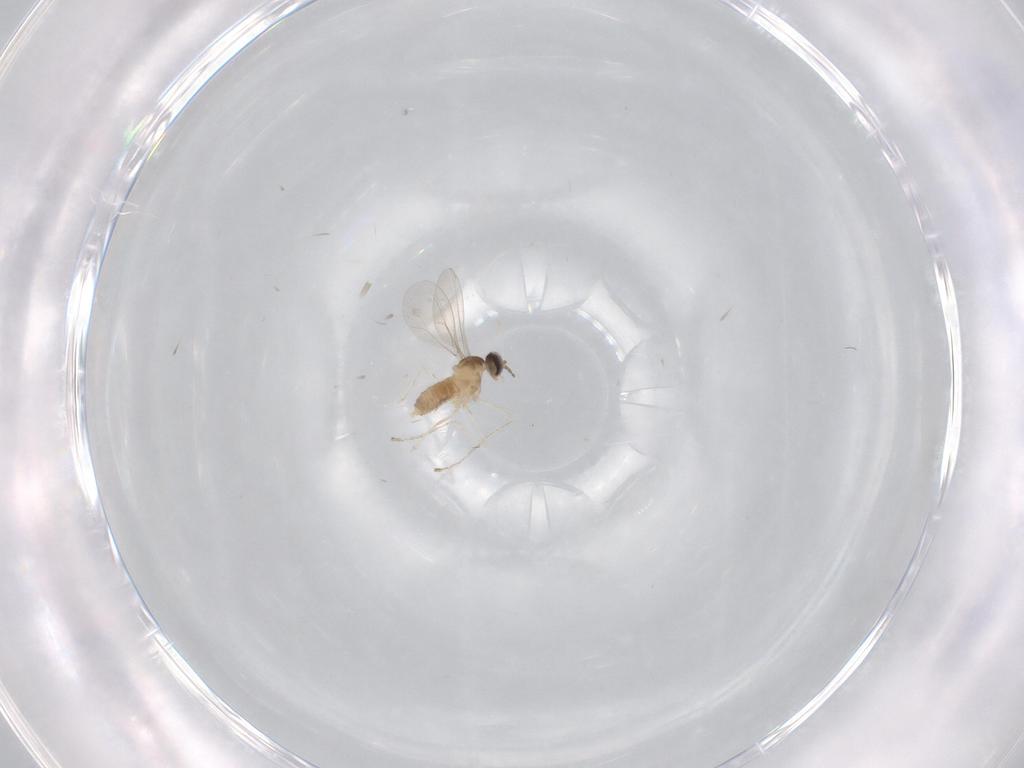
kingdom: Animalia
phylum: Arthropoda
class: Insecta
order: Diptera
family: Cecidomyiidae
